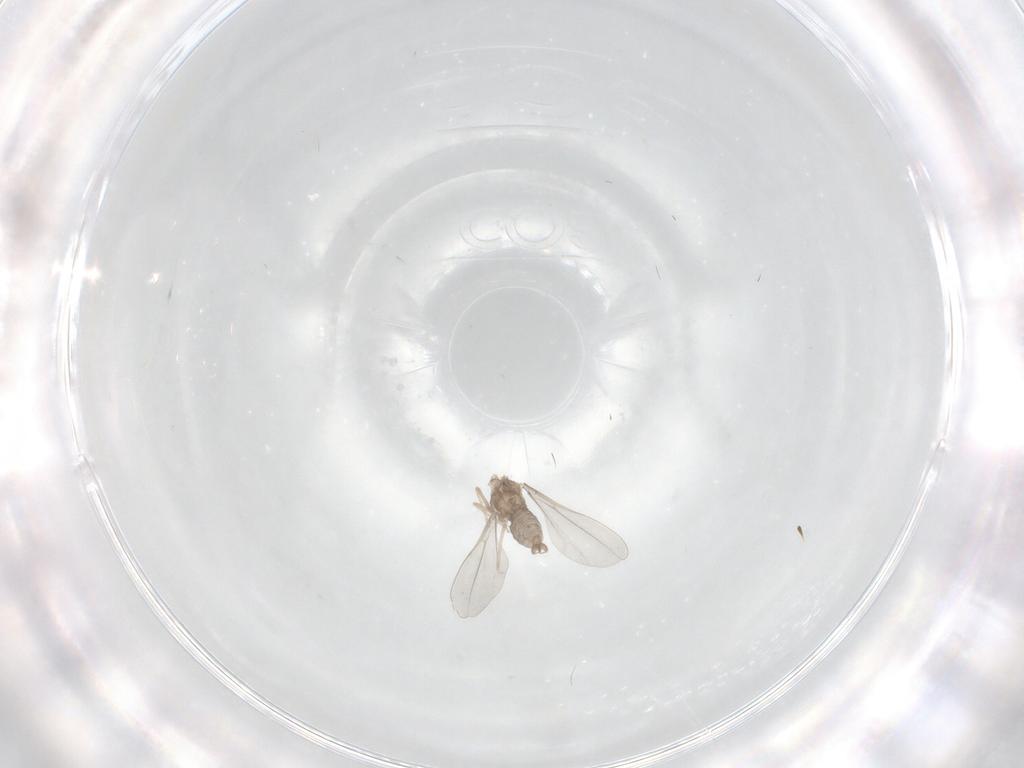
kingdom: Animalia
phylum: Arthropoda
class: Insecta
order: Diptera
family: Cecidomyiidae
